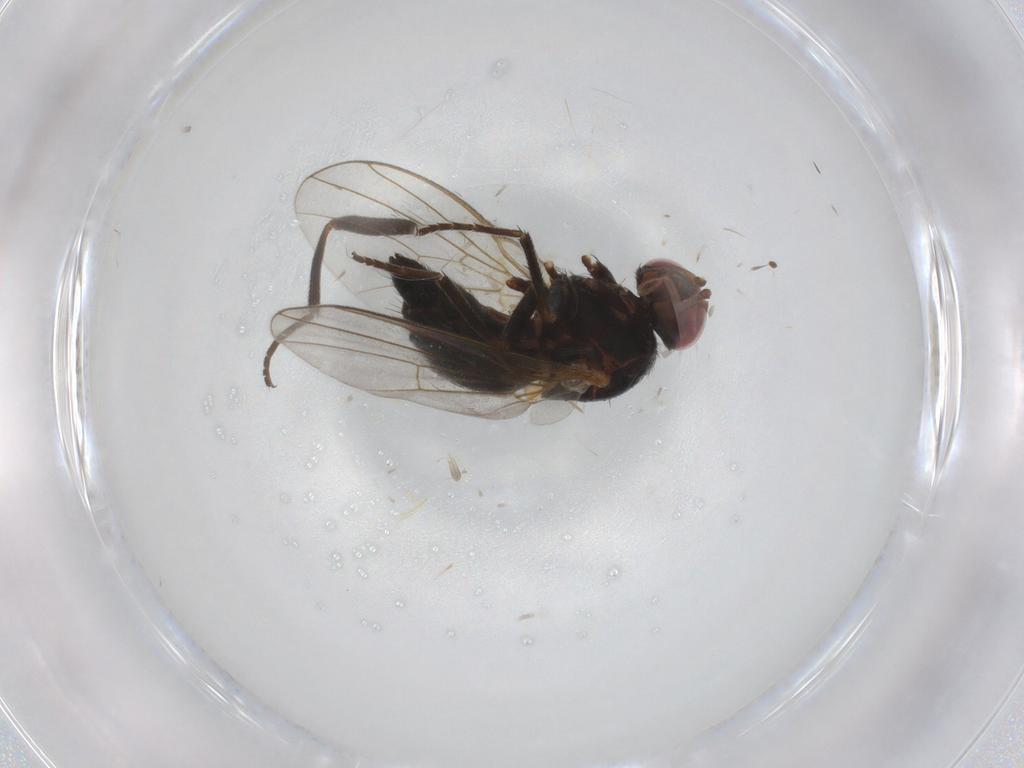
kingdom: Animalia
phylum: Arthropoda
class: Insecta
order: Diptera
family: Cecidomyiidae
